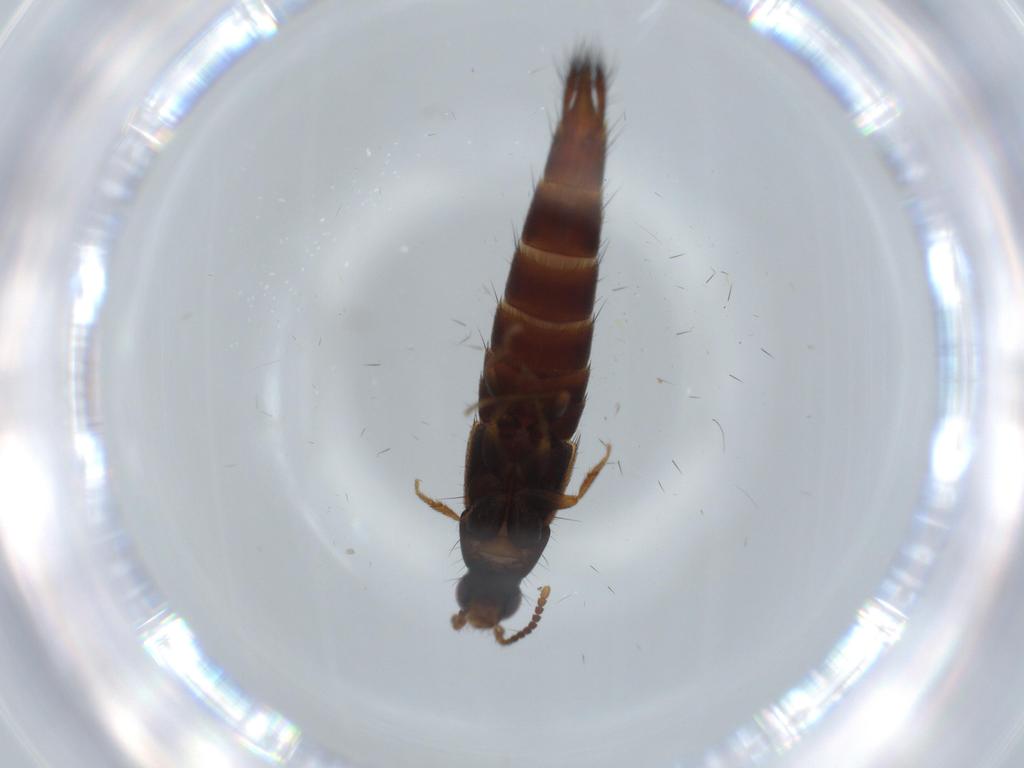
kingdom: Animalia
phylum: Arthropoda
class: Insecta
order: Coleoptera
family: Staphylinidae
